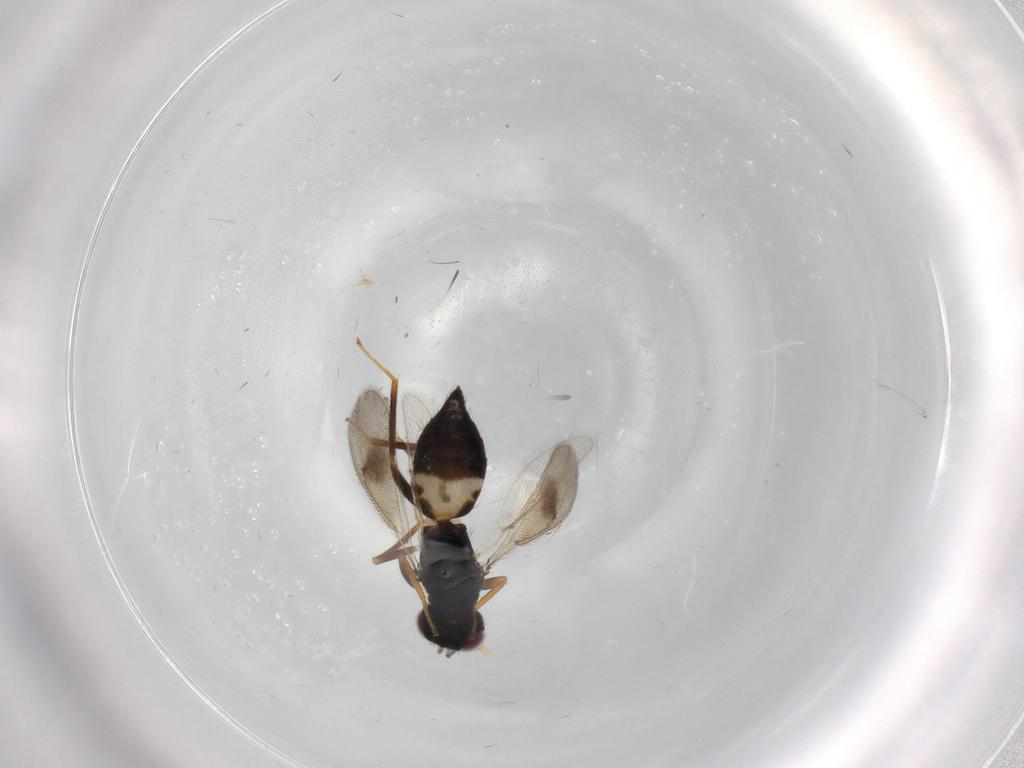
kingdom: Animalia
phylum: Arthropoda
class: Insecta
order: Hymenoptera
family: Eulophidae
